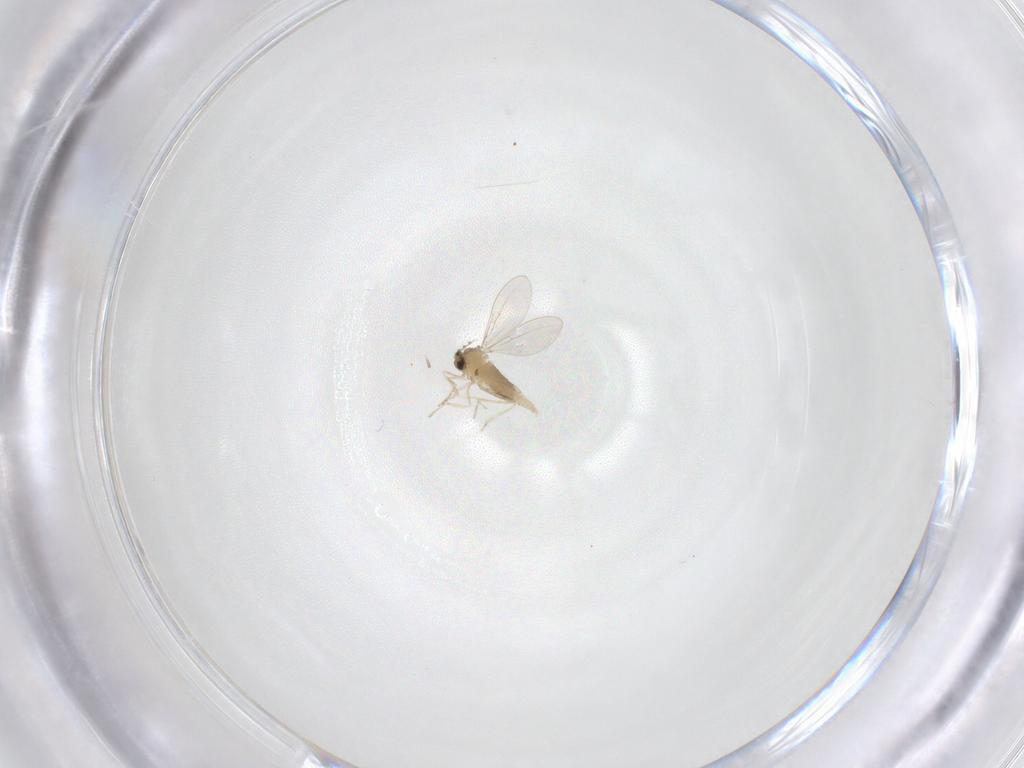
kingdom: Animalia
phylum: Arthropoda
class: Insecta
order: Diptera
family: Cecidomyiidae
